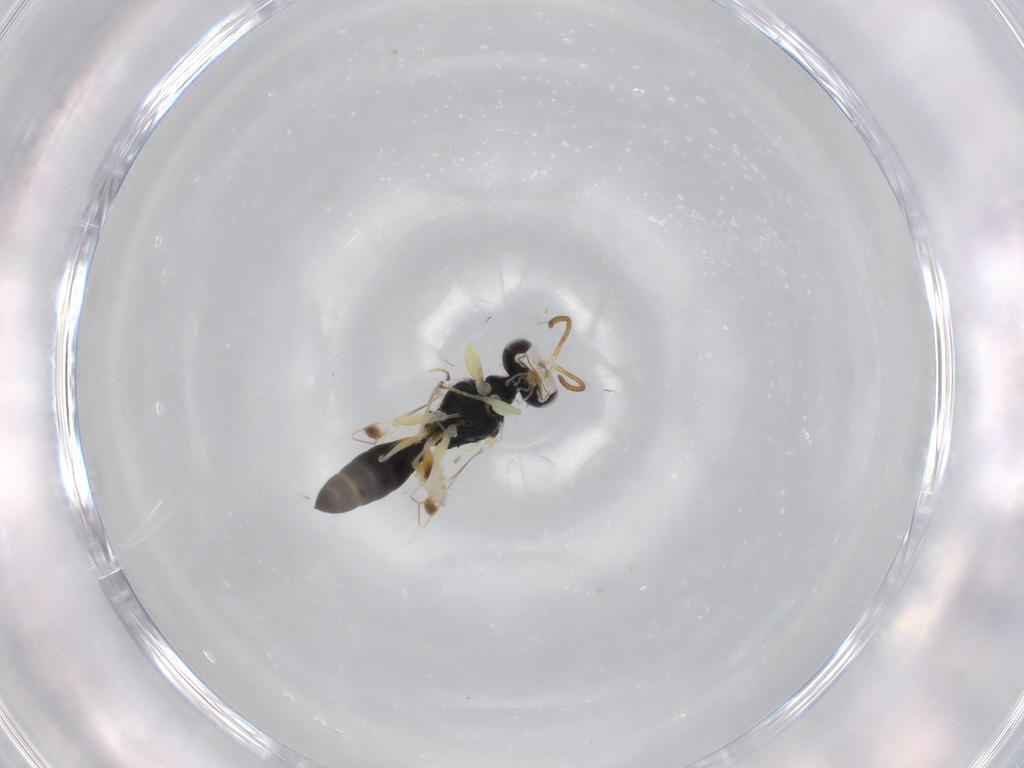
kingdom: Animalia
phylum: Arthropoda
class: Insecta
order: Hymenoptera
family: Pemphredonidae
